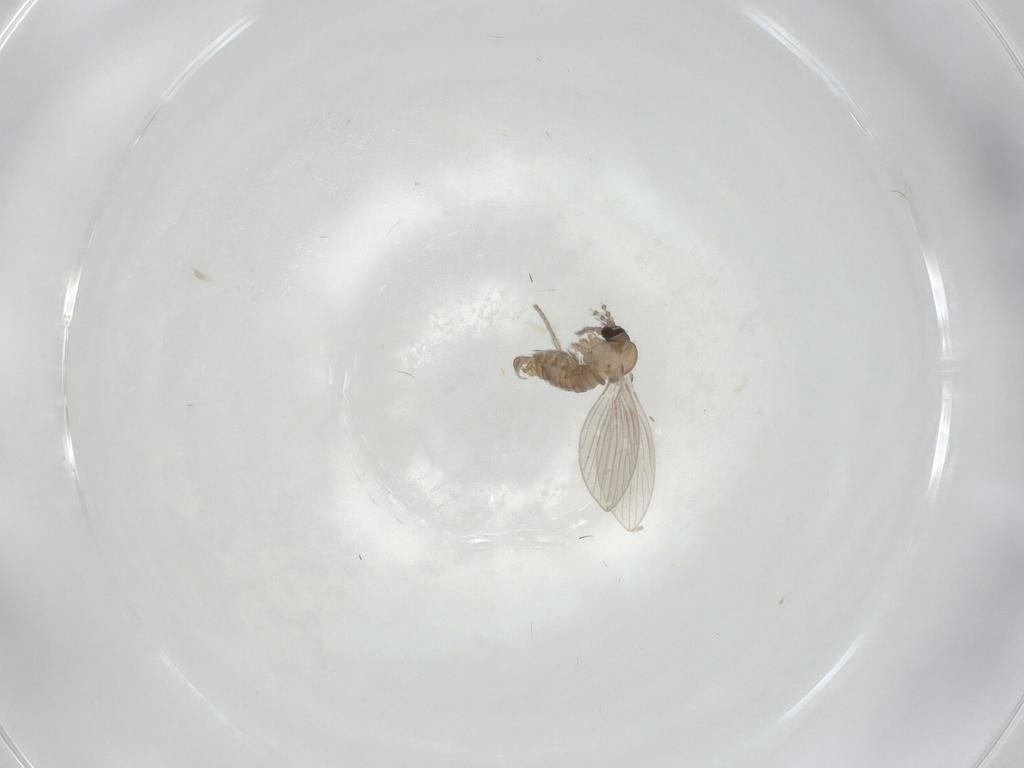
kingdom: Animalia
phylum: Arthropoda
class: Insecta
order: Diptera
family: Psychodidae
